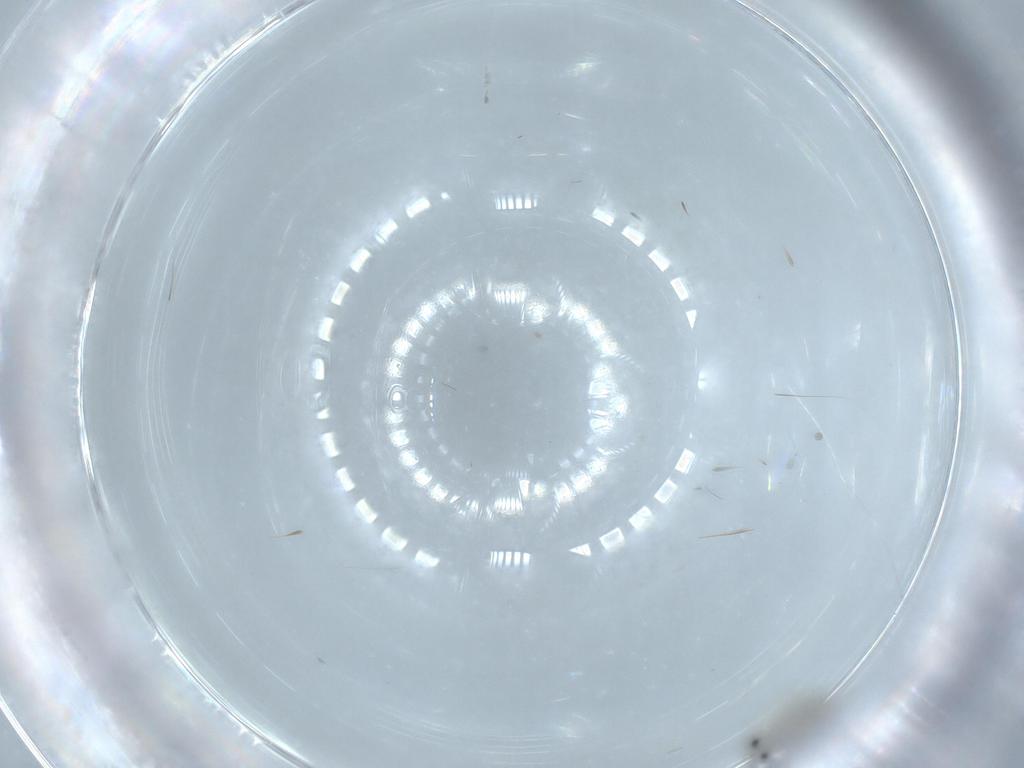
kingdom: Animalia
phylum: Arthropoda
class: Insecta
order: Diptera
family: Cecidomyiidae
